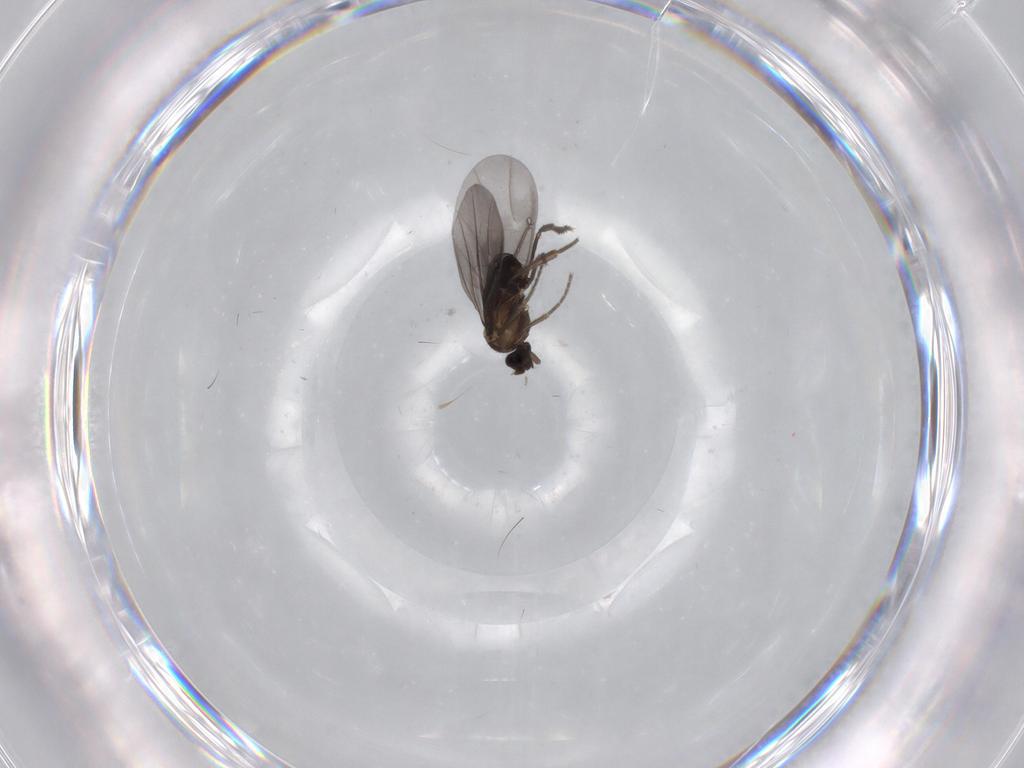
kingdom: Animalia
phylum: Arthropoda
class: Insecta
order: Diptera
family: Phoridae
